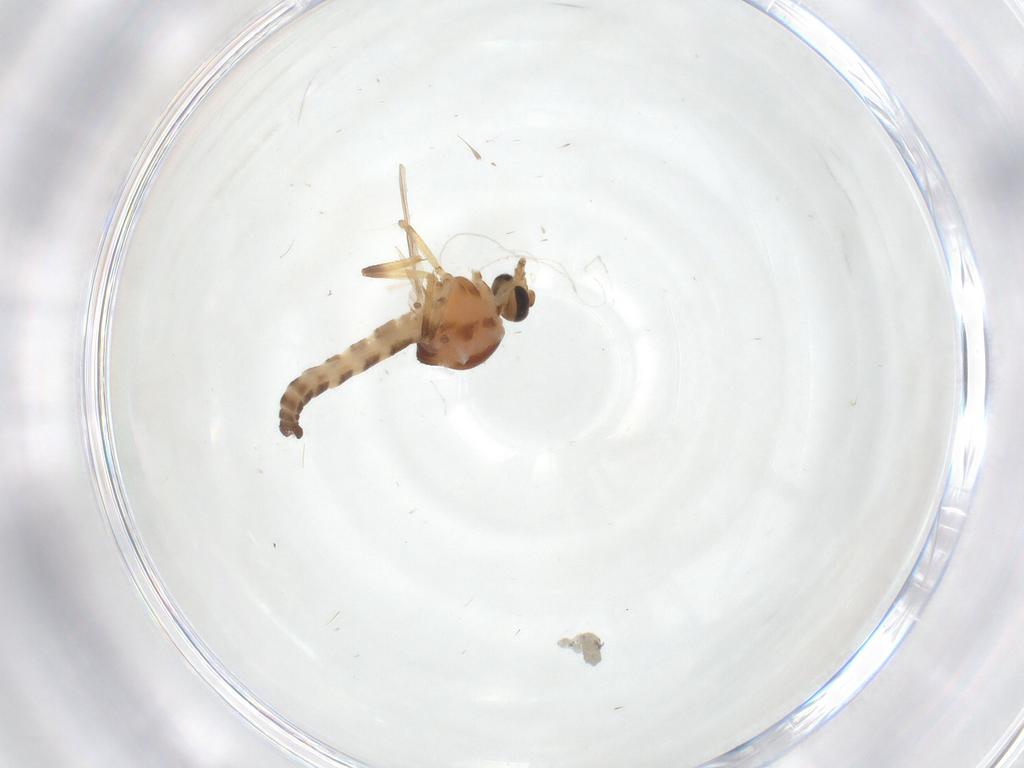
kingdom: Animalia
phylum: Arthropoda
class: Insecta
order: Diptera
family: Ceratopogonidae
